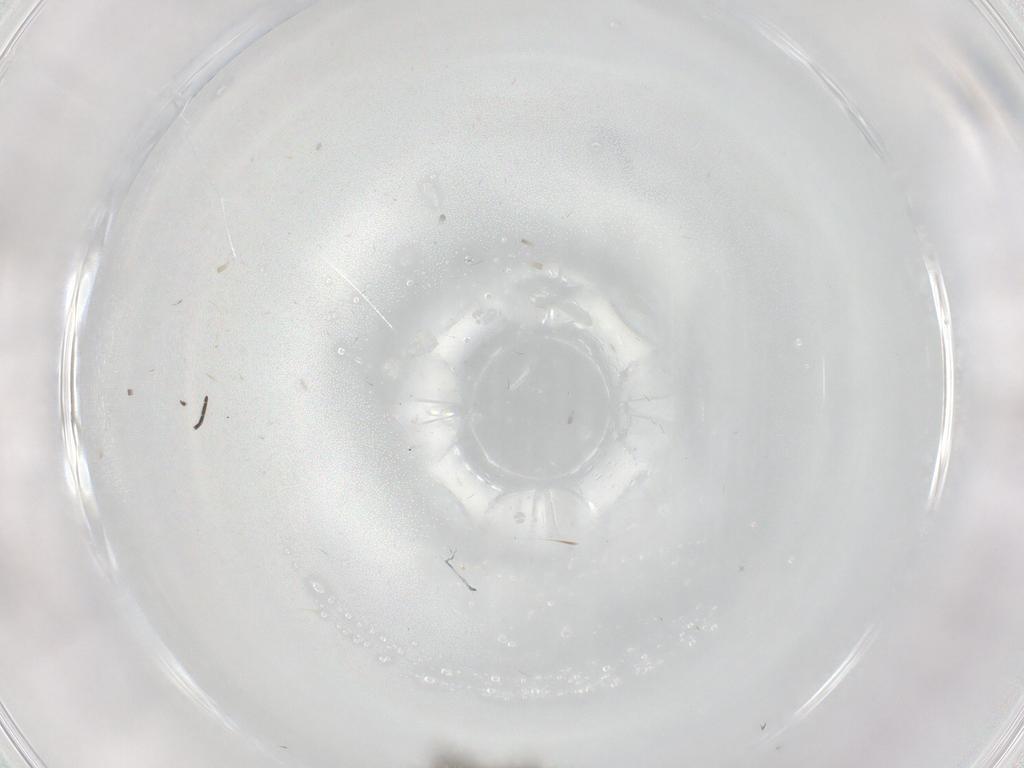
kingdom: Animalia
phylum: Arthropoda
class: Insecta
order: Diptera
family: Sciaridae
